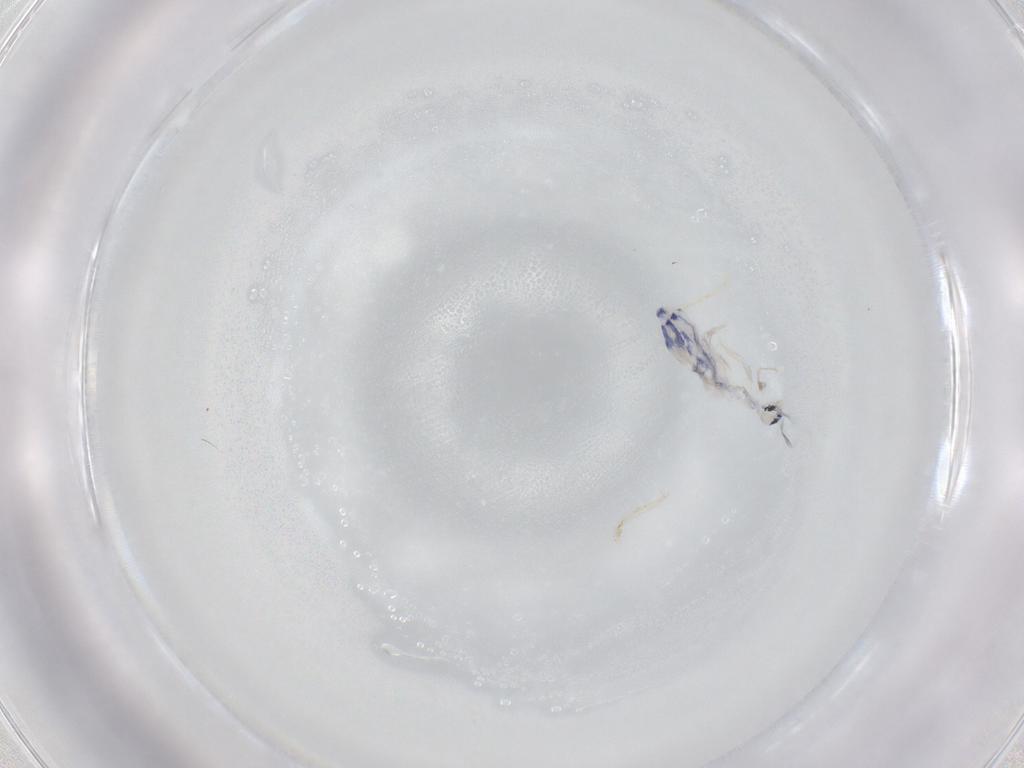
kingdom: Animalia
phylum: Arthropoda
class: Collembola
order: Entomobryomorpha
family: Entomobryidae
